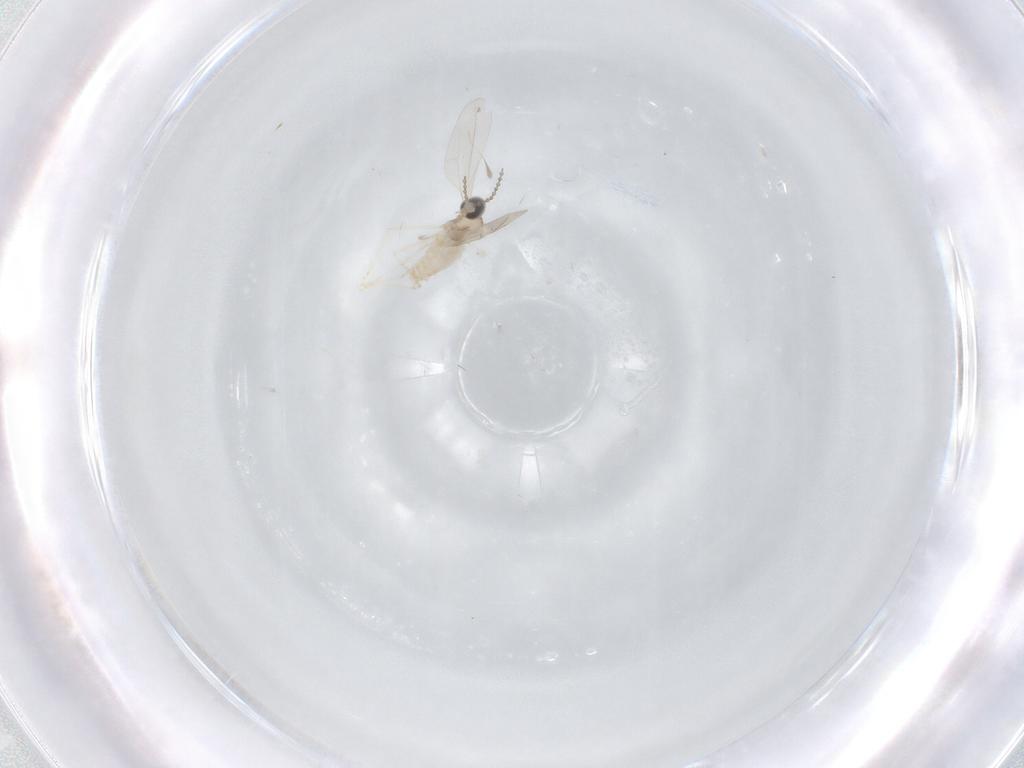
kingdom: Animalia
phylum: Arthropoda
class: Insecta
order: Diptera
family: Cecidomyiidae
